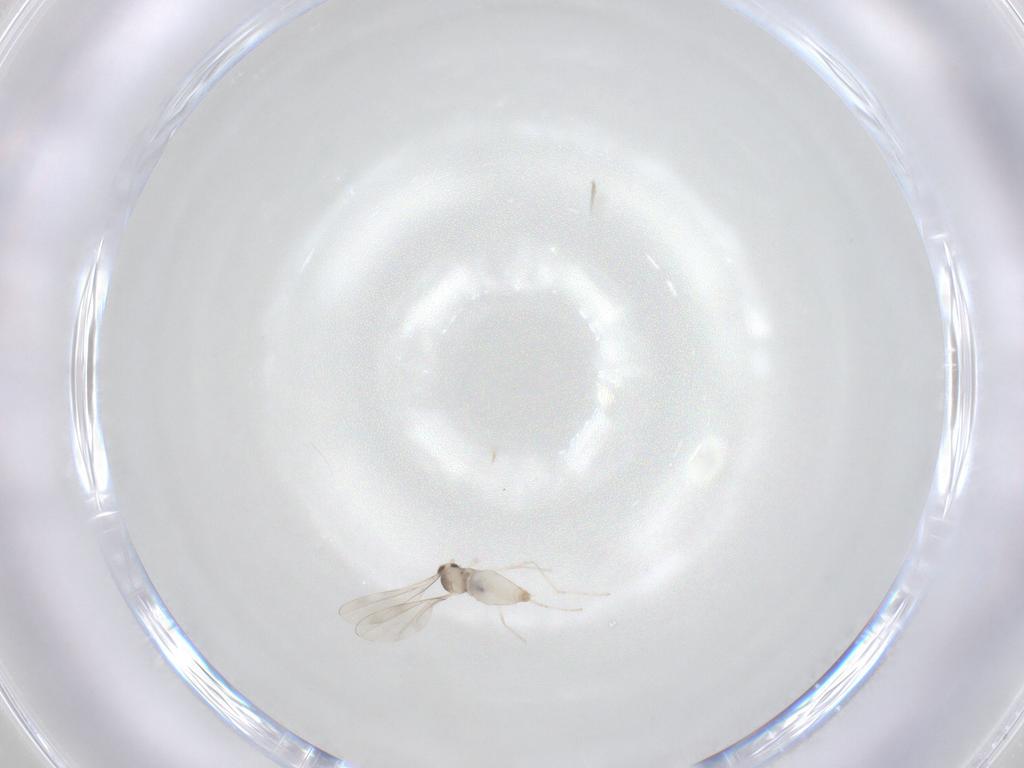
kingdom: Animalia
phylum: Arthropoda
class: Insecta
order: Diptera
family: Cecidomyiidae
